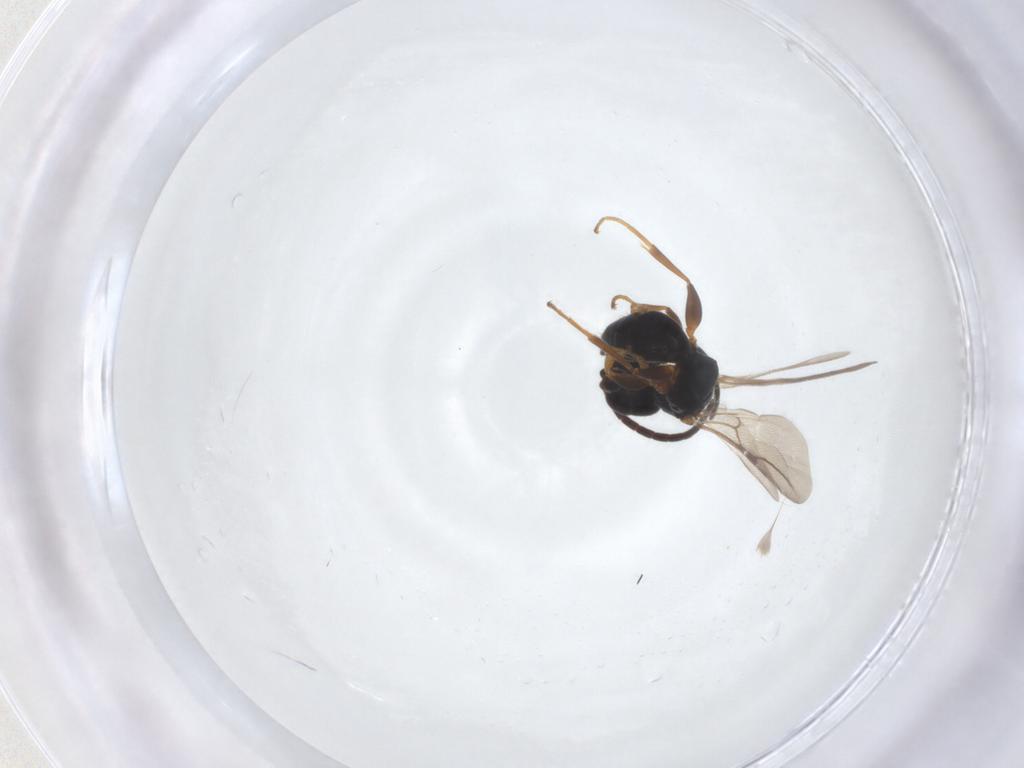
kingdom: Animalia
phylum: Arthropoda
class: Insecta
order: Hymenoptera
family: Bethylidae
